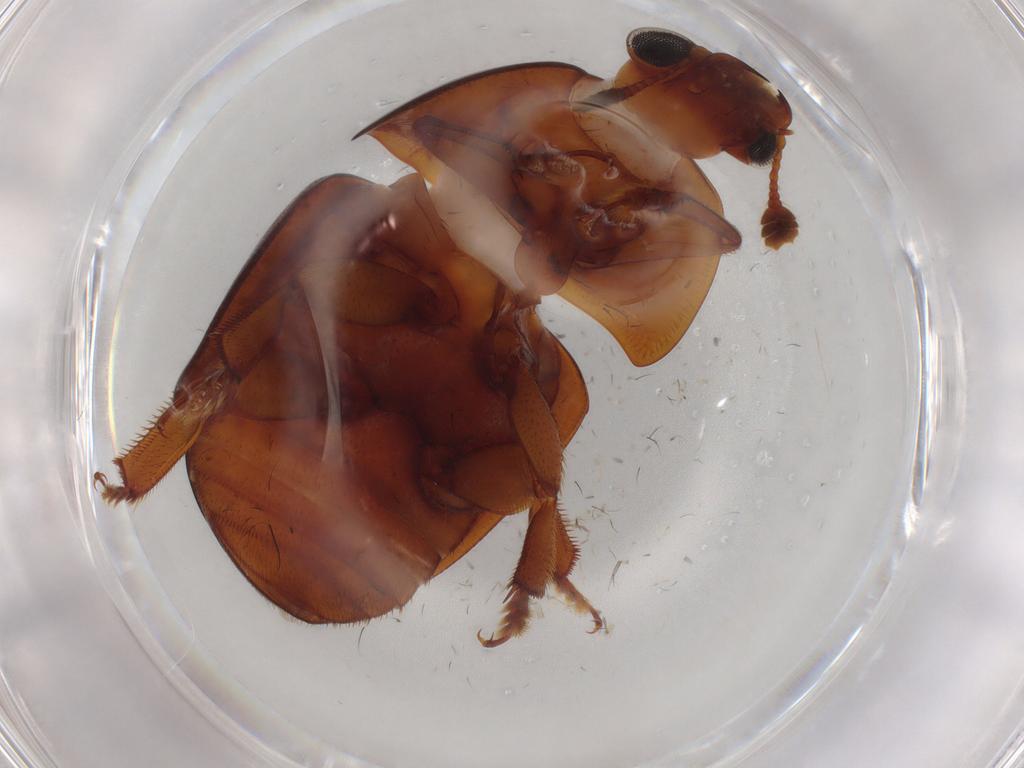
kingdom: Animalia
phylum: Arthropoda
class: Insecta
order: Coleoptera
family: Nitidulidae
